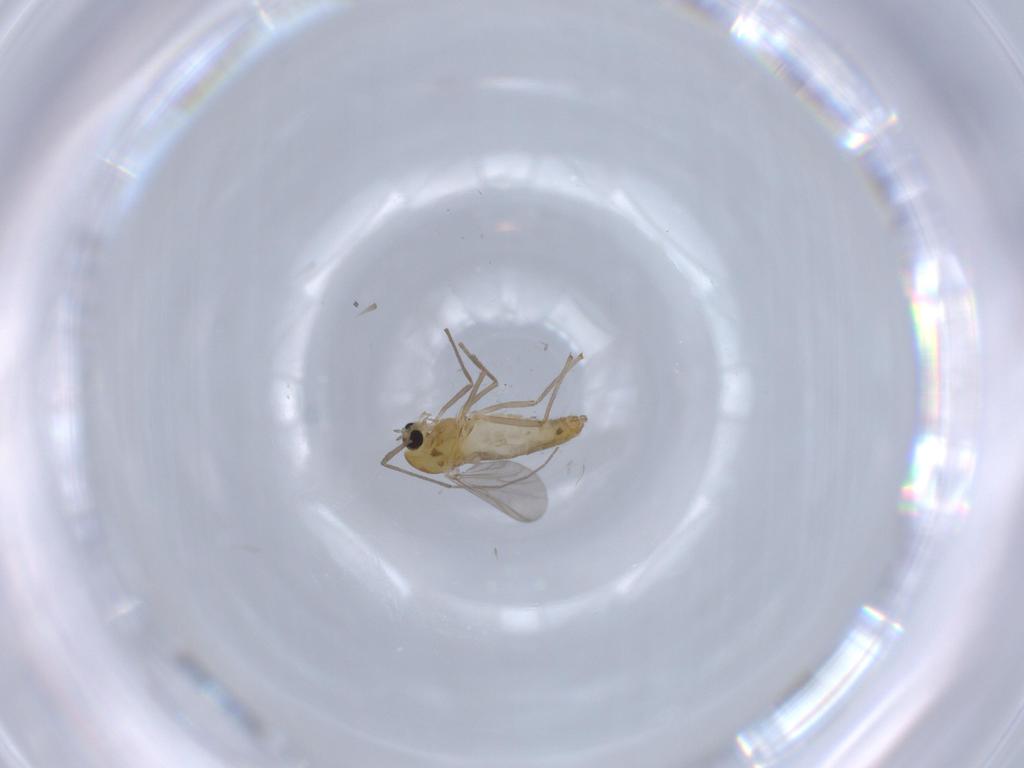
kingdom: Animalia
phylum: Arthropoda
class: Insecta
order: Diptera
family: Chironomidae
